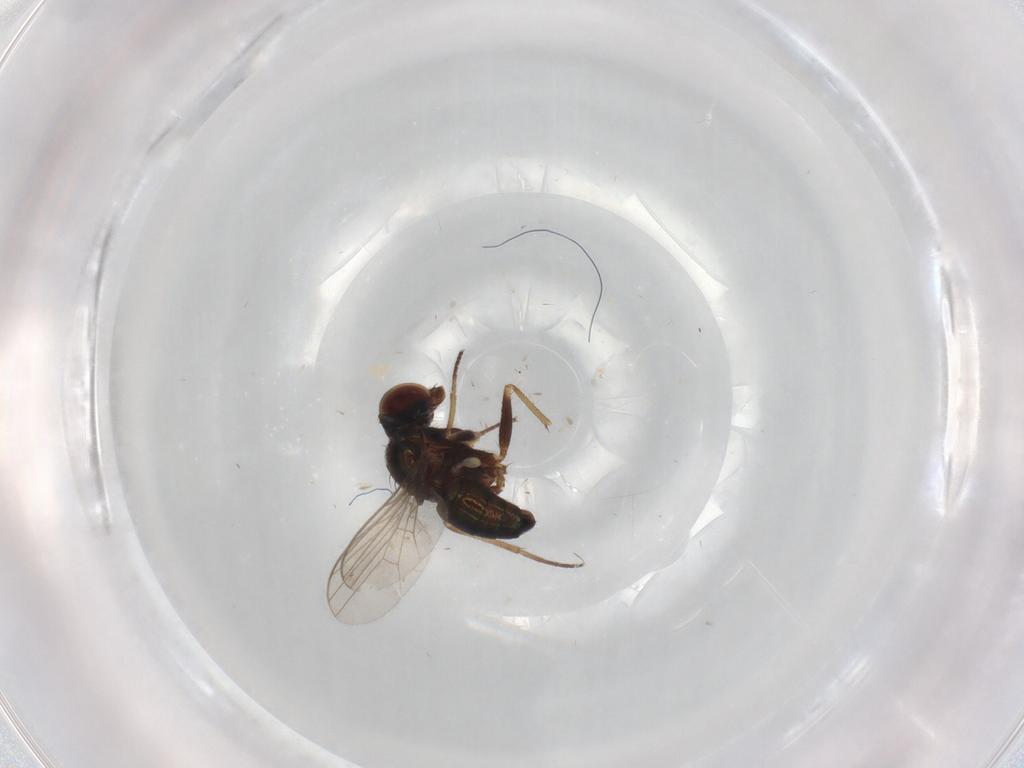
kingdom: Animalia
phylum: Arthropoda
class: Insecta
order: Diptera
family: Cecidomyiidae
